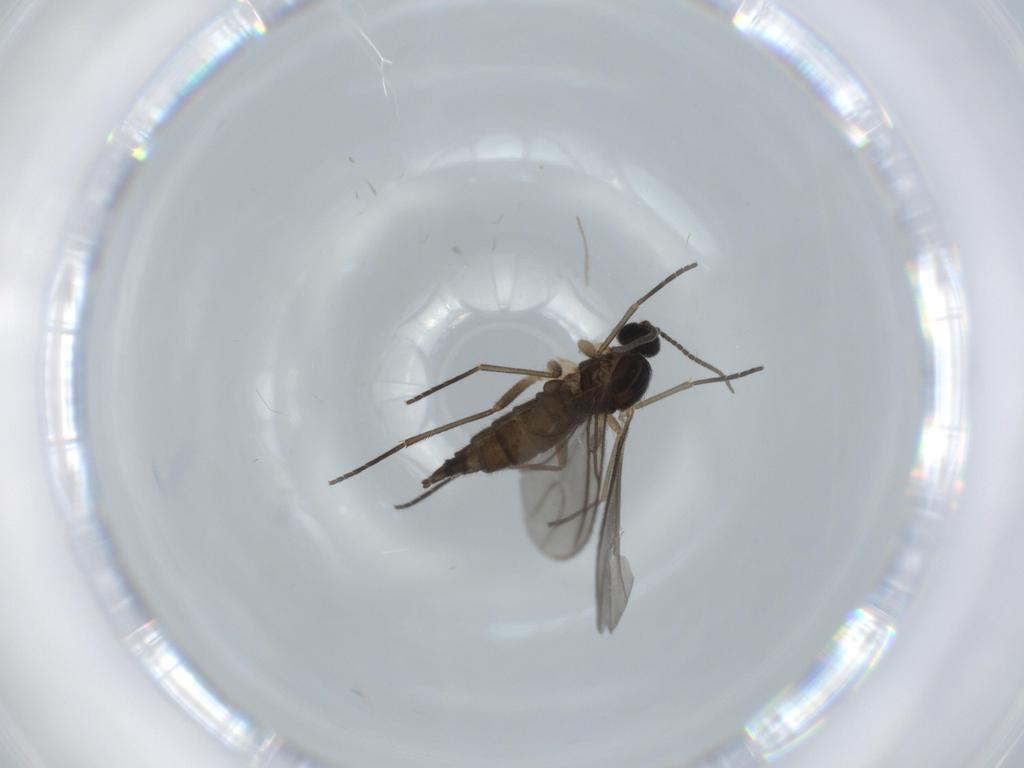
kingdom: Animalia
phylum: Arthropoda
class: Insecta
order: Diptera
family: Cecidomyiidae
